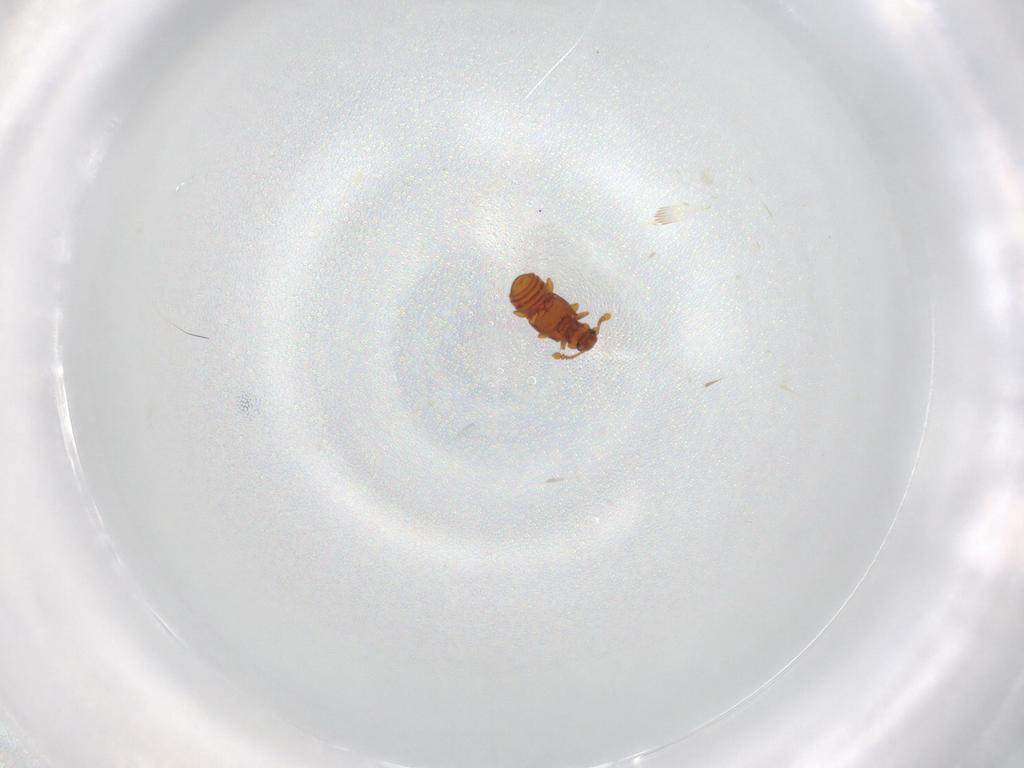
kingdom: Animalia
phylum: Arthropoda
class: Insecta
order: Coleoptera
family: Staphylinidae
